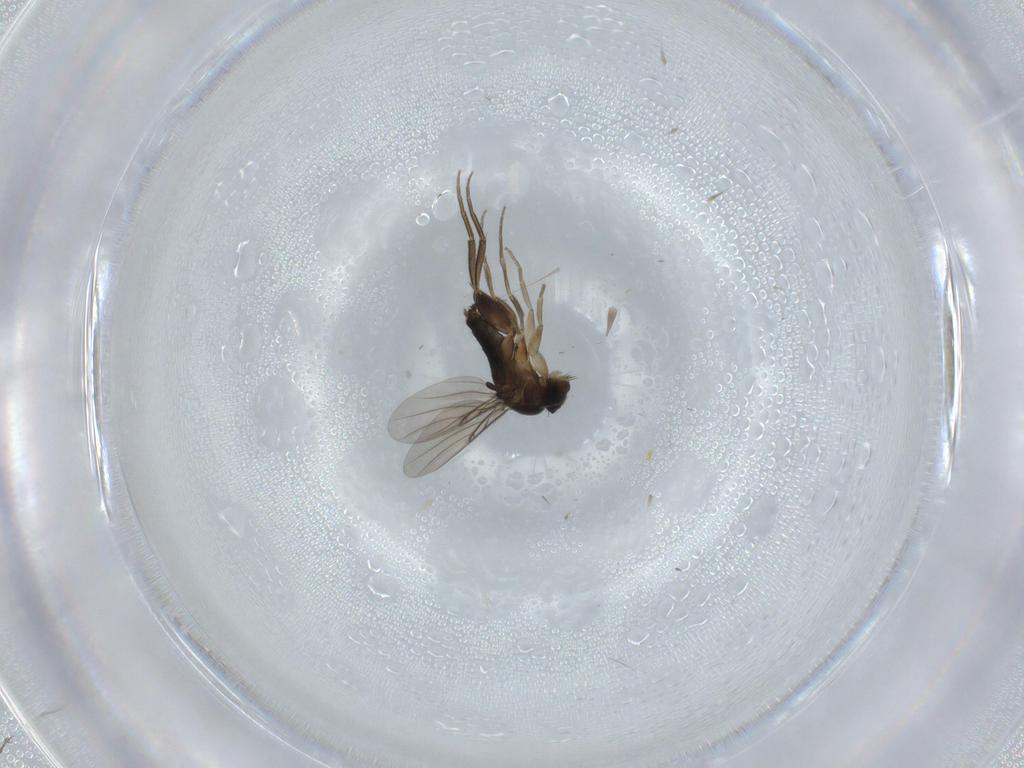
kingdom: Animalia
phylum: Arthropoda
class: Insecta
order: Diptera
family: Phoridae
